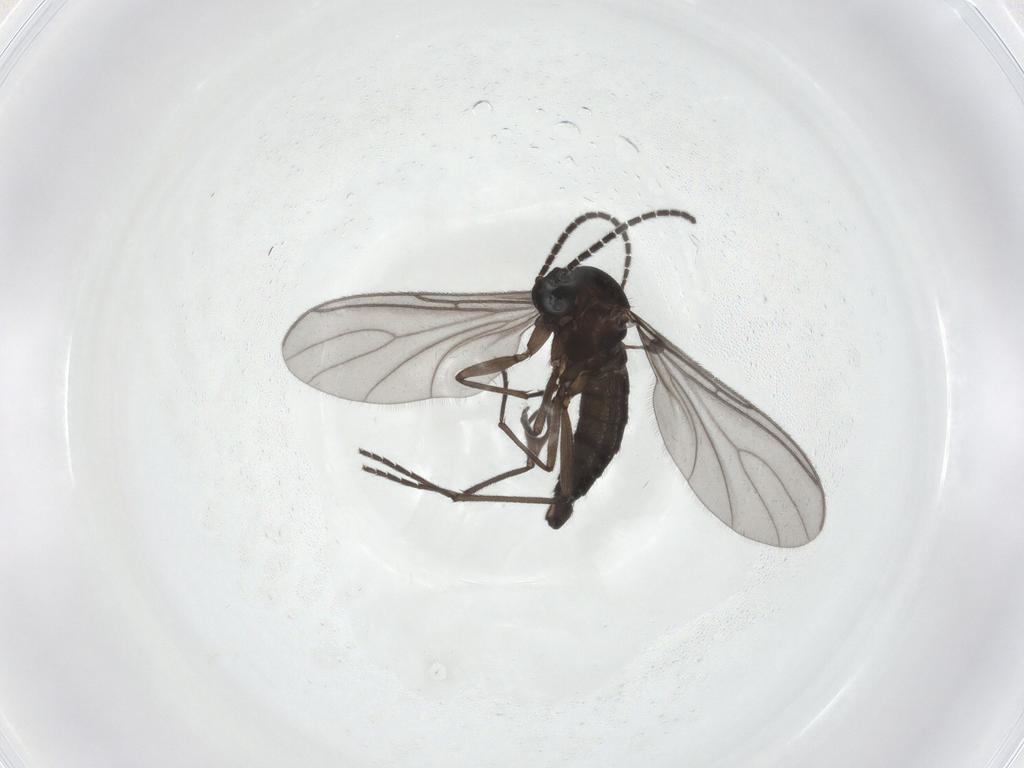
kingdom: Animalia
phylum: Arthropoda
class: Insecta
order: Diptera
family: Sciaridae
